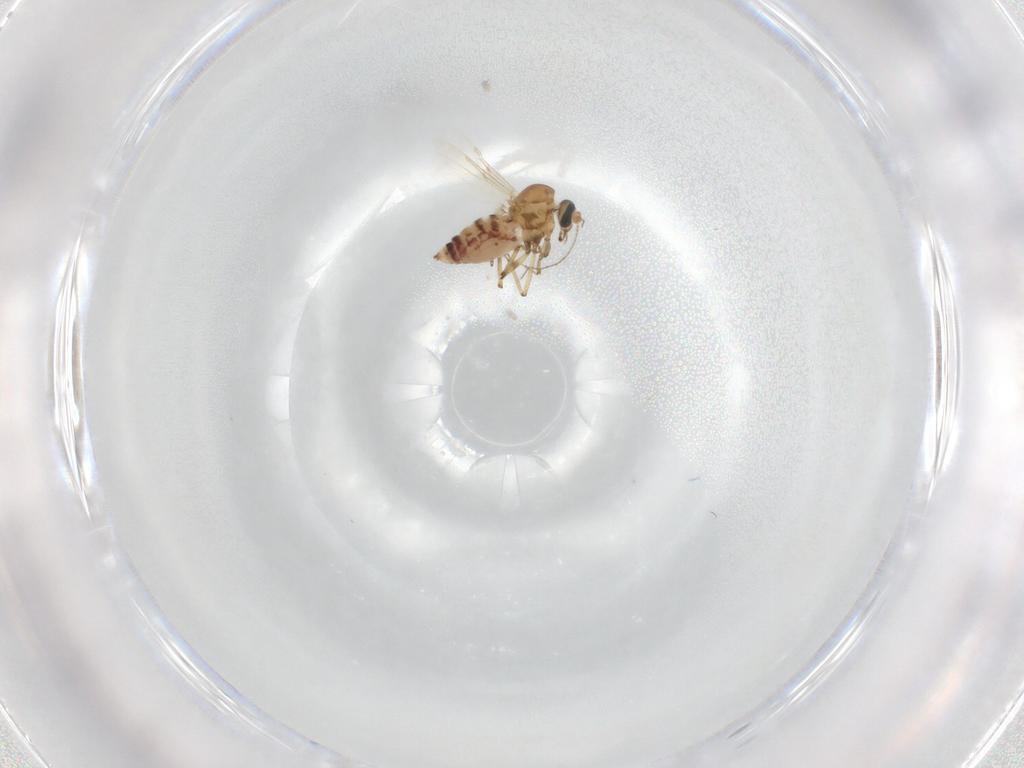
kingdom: Animalia
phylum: Arthropoda
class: Insecta
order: Diptera
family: Ceratopogonidae
